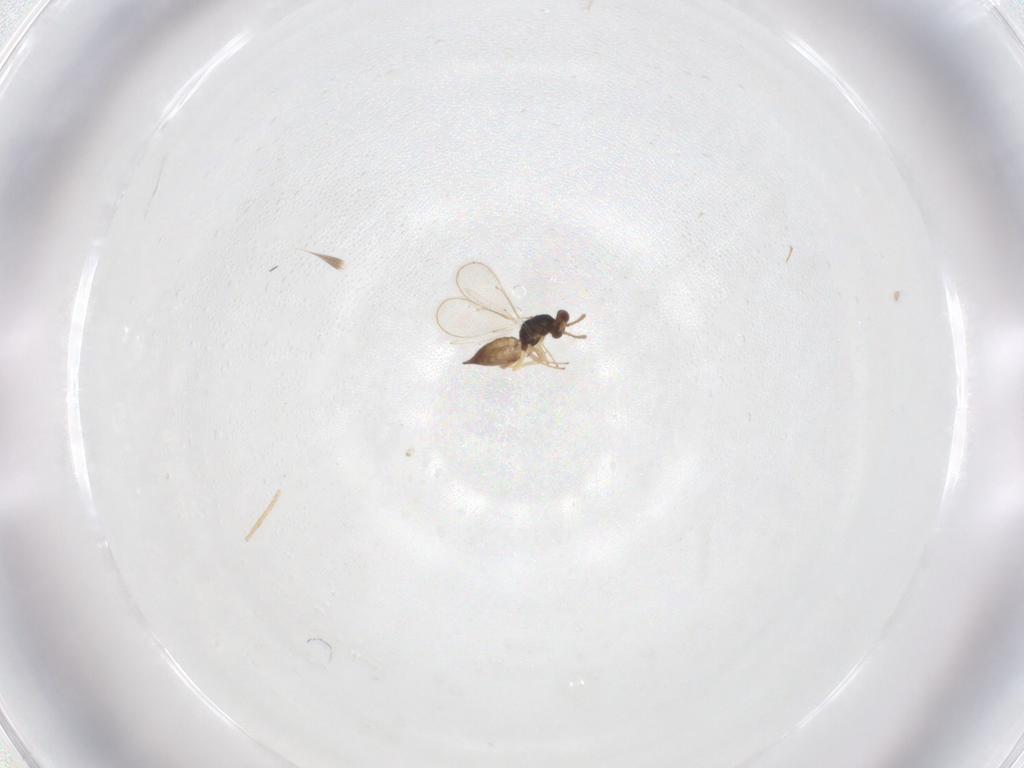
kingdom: Animalia
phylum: Arthropoda
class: Insecta
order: Hymenoptera
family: Eulophidae
